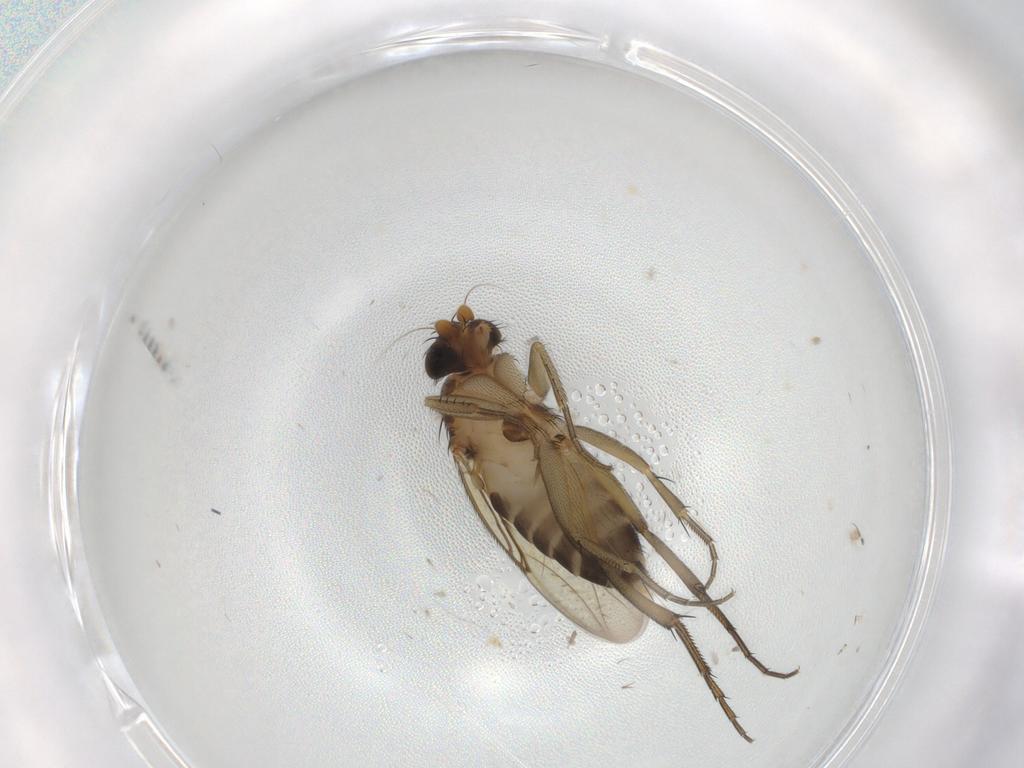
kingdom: Animalia
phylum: Arthropoda
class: Insecta
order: Diptera
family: Phoridae
